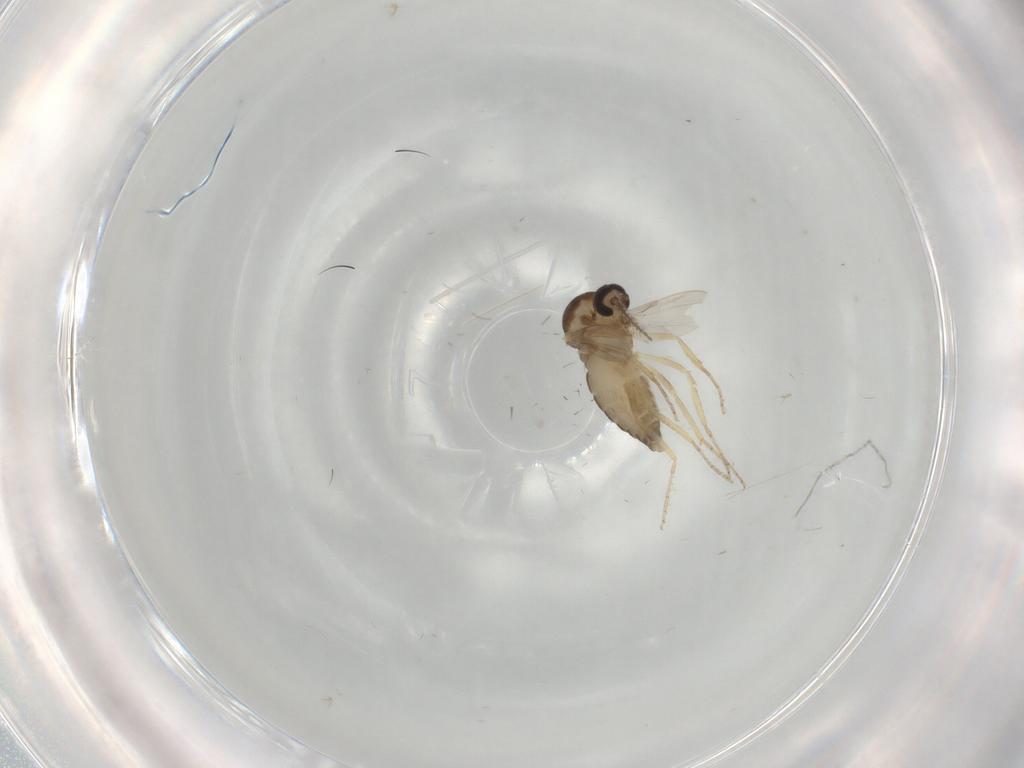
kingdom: Animalia
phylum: Arthropoda
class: Insecta
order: Diptera
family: Ceratopogonidae
